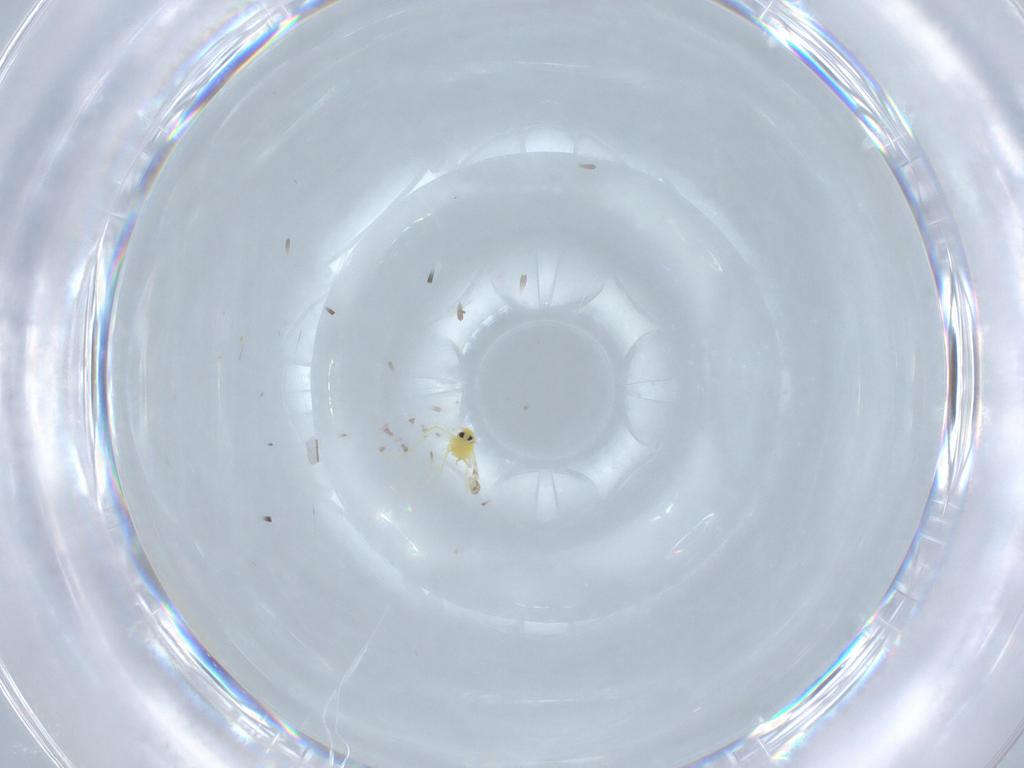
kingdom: Animalia
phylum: Arthropoda
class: Insecta
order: Hemiptera
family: Aleyrodidae
